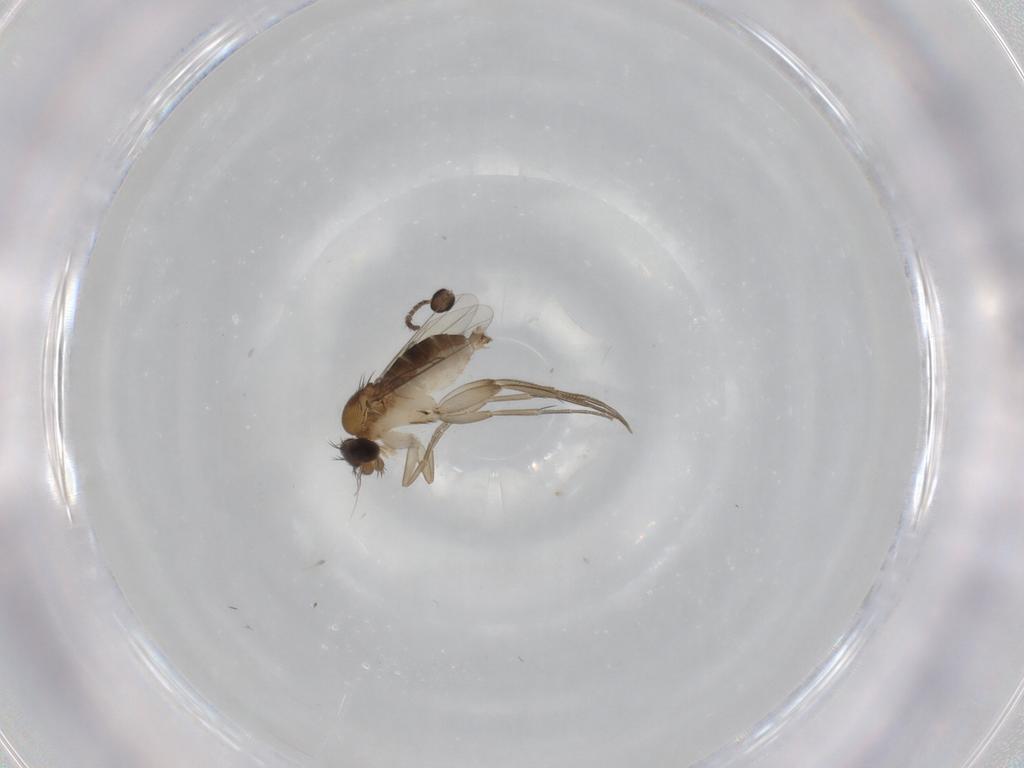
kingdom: Animalia
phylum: Arthropoda
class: Insecta
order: Diptera
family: Phoridae
